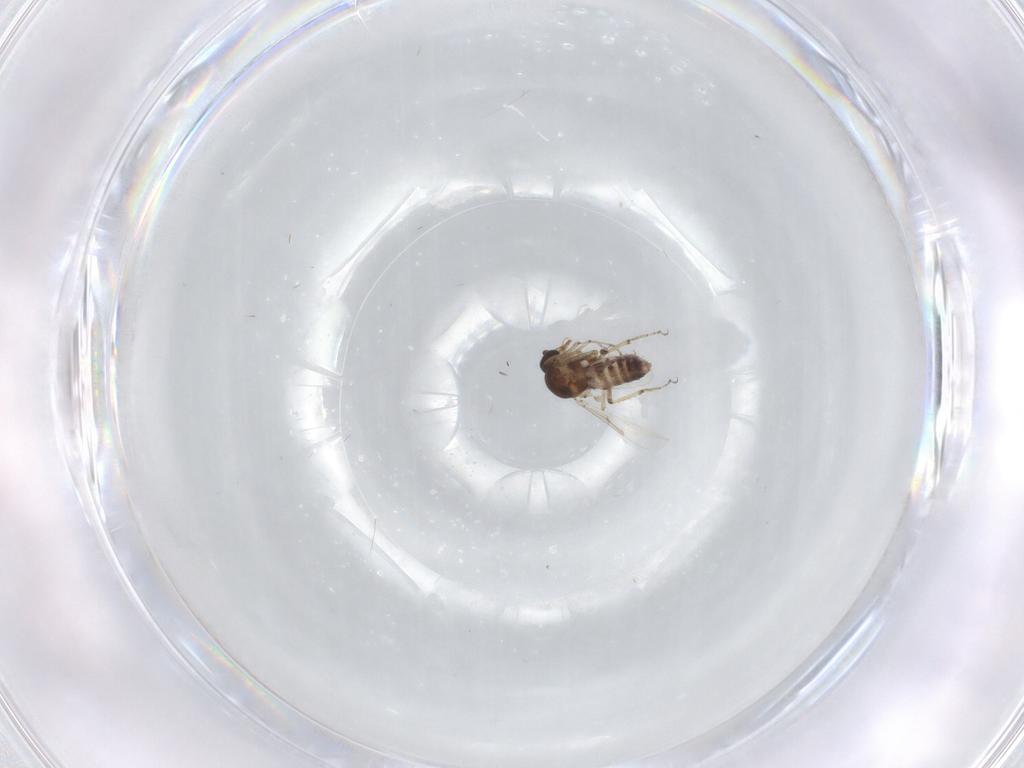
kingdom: Animalia
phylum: Arthropoda
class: Insecta
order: Diptera
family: Ceratopogonidae
